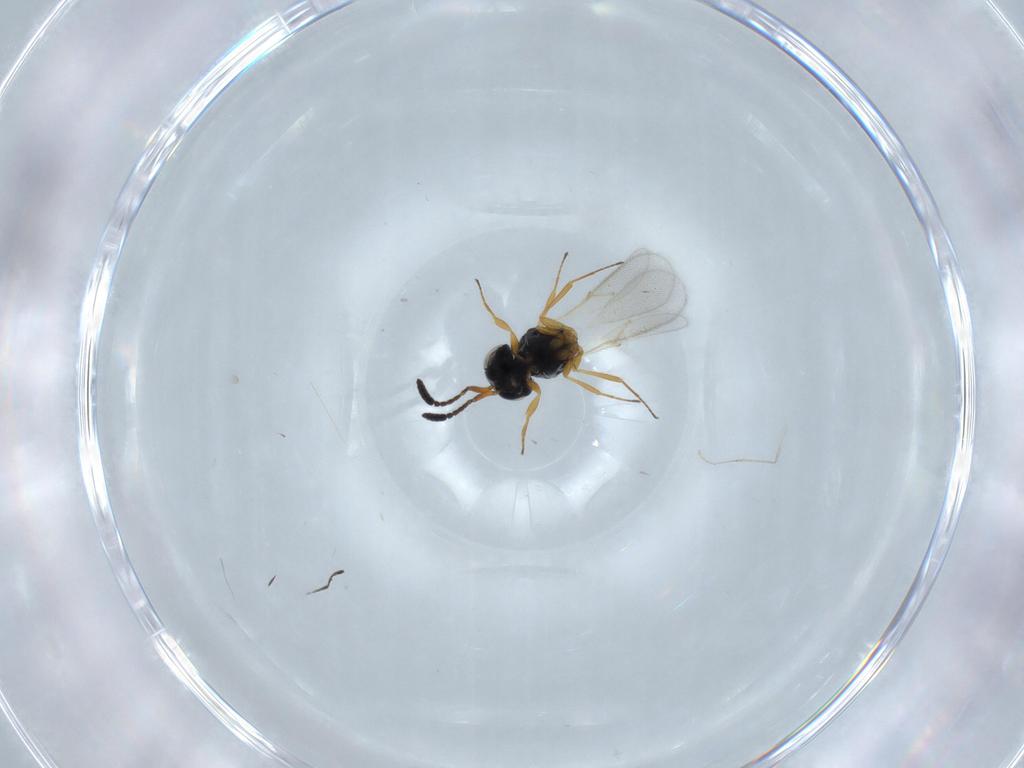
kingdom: Animalia
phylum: Arthropoda
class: Insecta
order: Hymenoptera
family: Scelionidae
